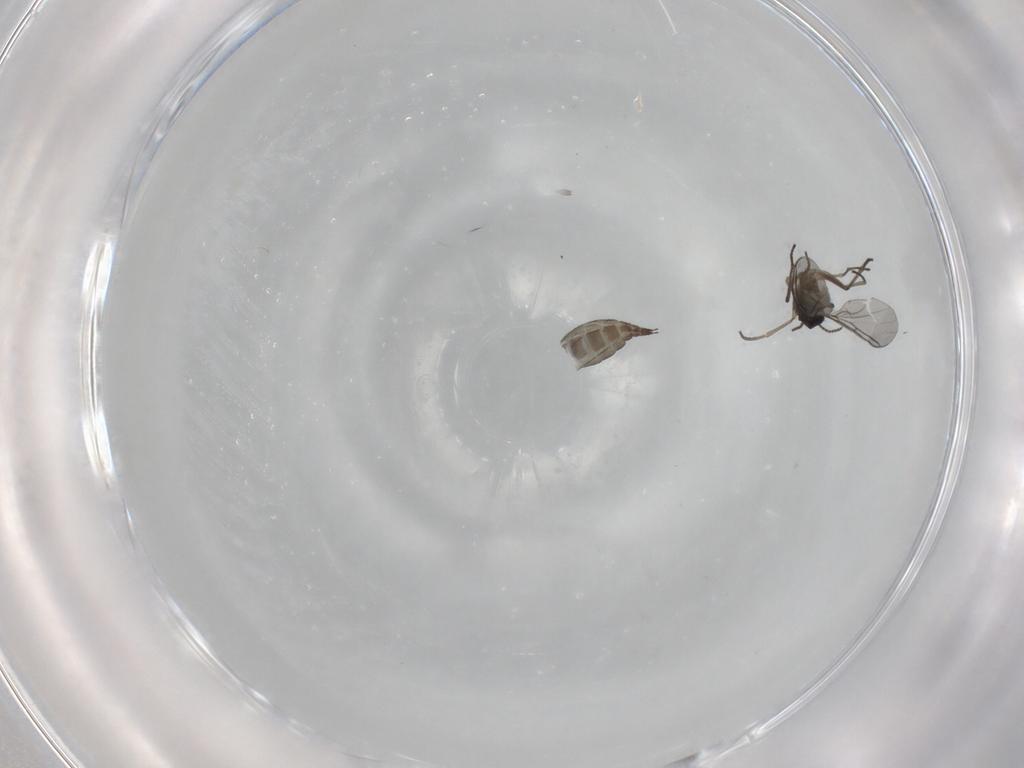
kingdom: Animalia
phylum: Arthropoda
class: Insecta
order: Diptera
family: Sciaridae
